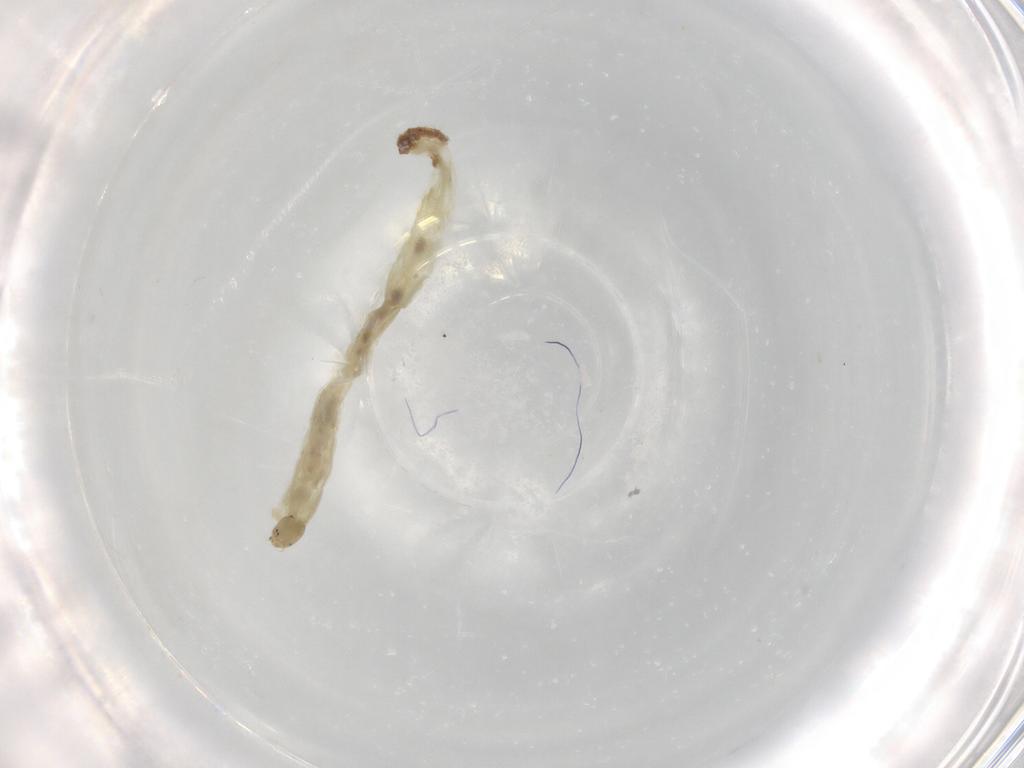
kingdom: Animalia
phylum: Arthropoda
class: Insecta
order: Diptera
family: Chironomidae
